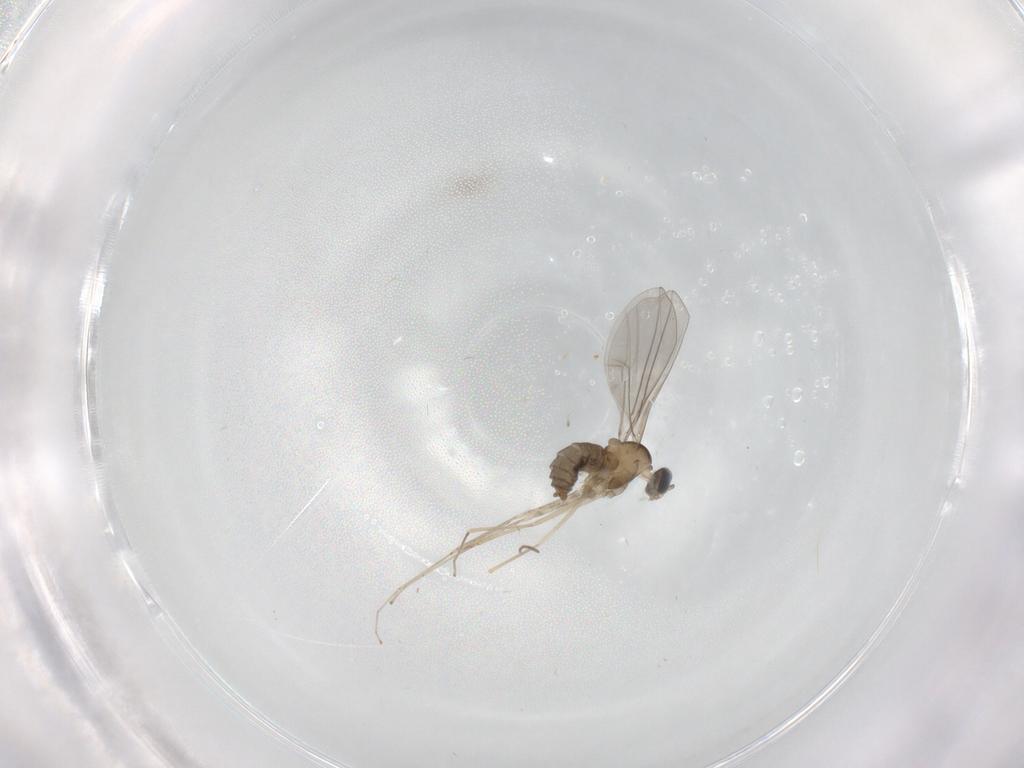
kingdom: Animalia
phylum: Arthropoda
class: Insecta
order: Diptera
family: Cecidomyiidae
